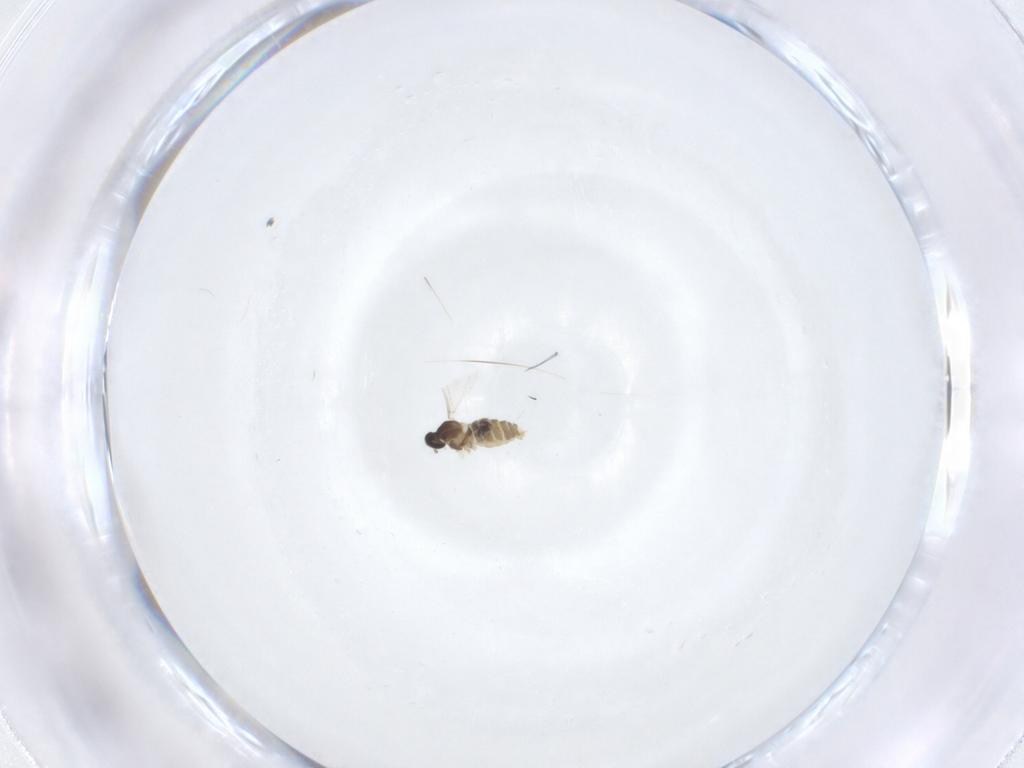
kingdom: Animalia
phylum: Arthropoda
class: Insecta
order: Diptera
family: Cecidomyiidae
